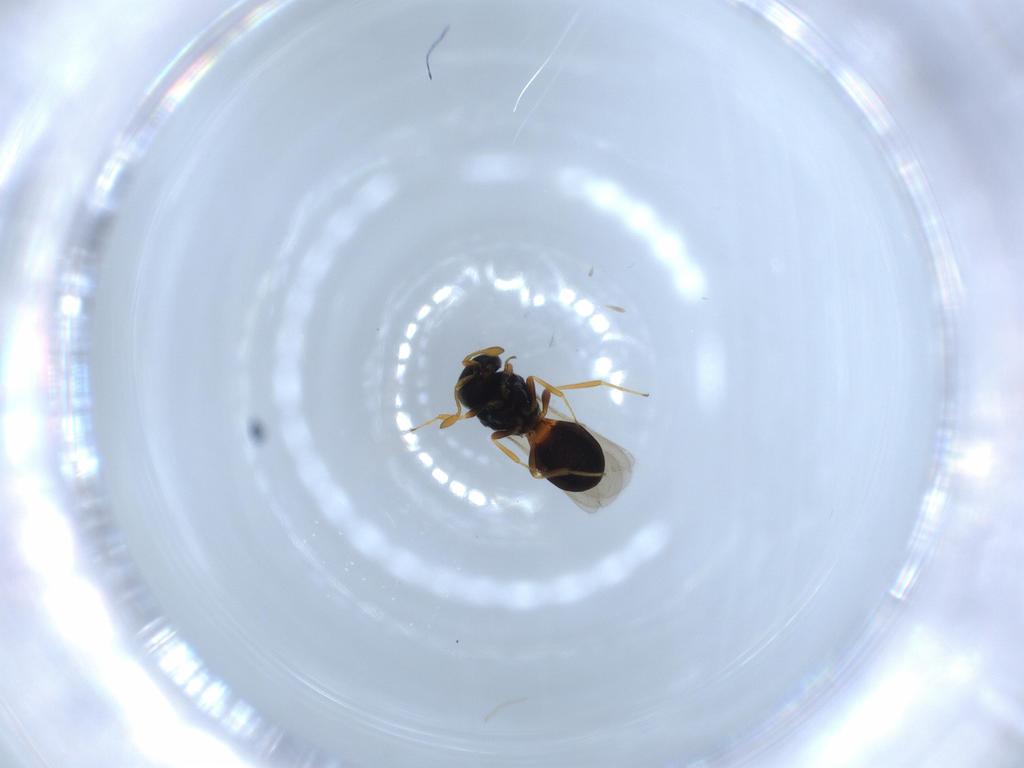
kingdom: Animalia
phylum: Arthropoda
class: Insecta
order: Hymenoptera
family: Scelionidae
